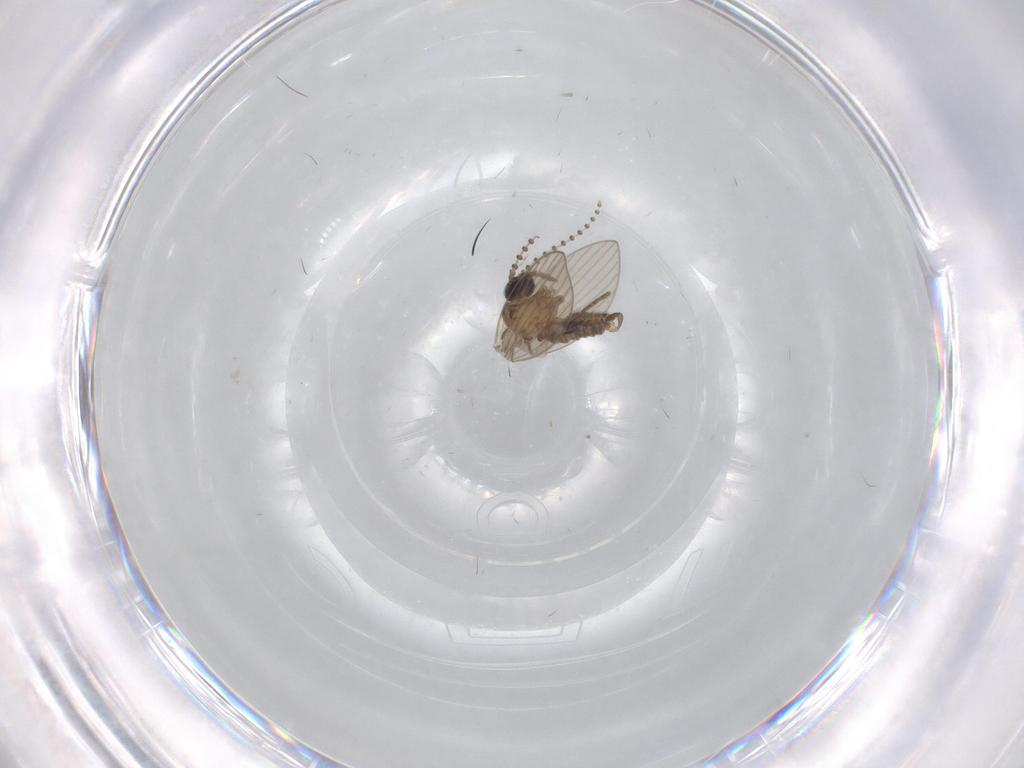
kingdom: Animalia
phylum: Arthropoda
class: Insecta
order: Diptera
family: Psychodidae
